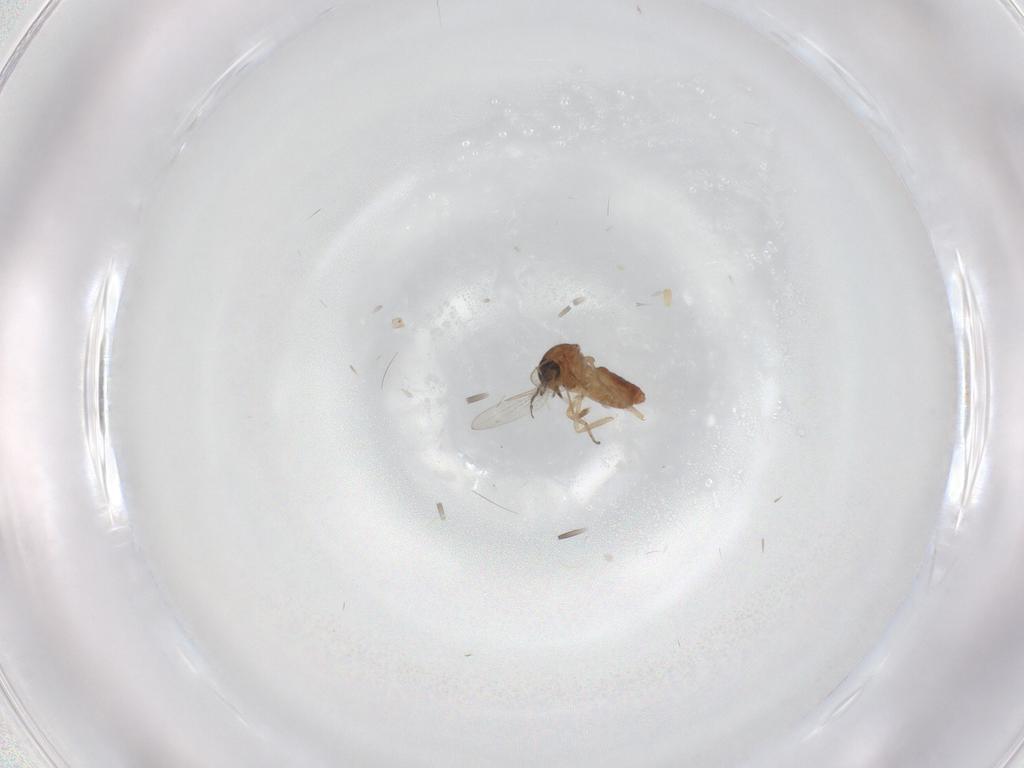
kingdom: Animalia
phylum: Arthropoda
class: Insecta
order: Diptera
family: Ceratopogonidae
